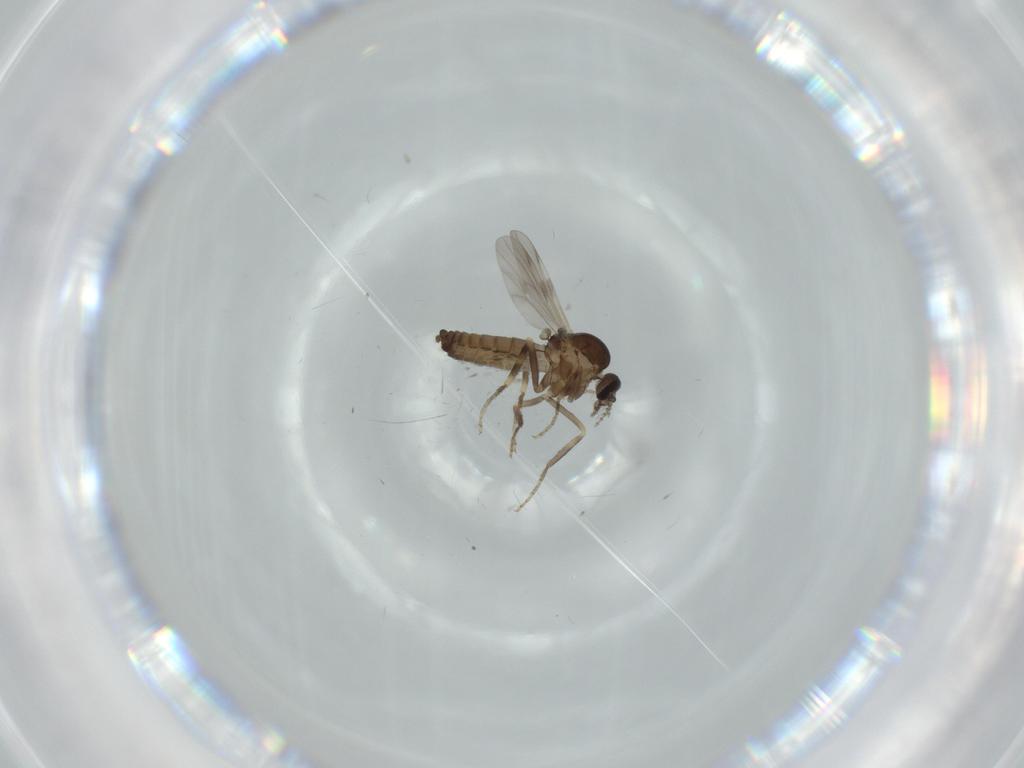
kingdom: Animalia
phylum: Arthropoda
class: Insecta
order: Diptera
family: Ceratopogonidae
